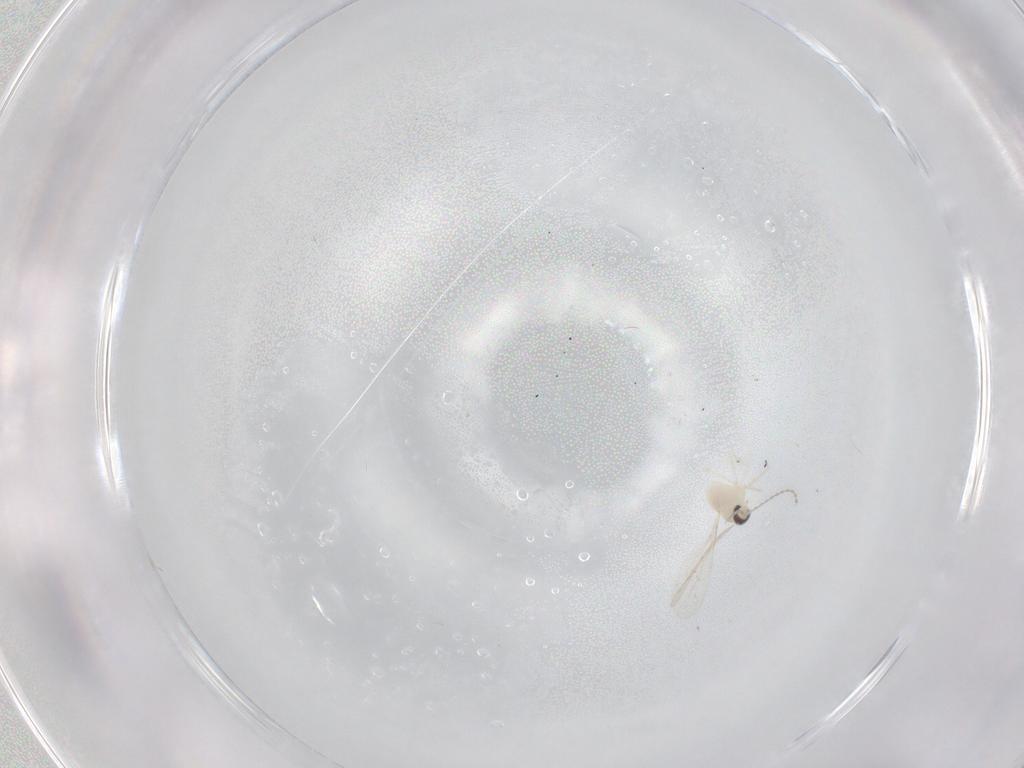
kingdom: Animalia
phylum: Arthropoda
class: Insecta
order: Diptera
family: Cecidomyiidae
